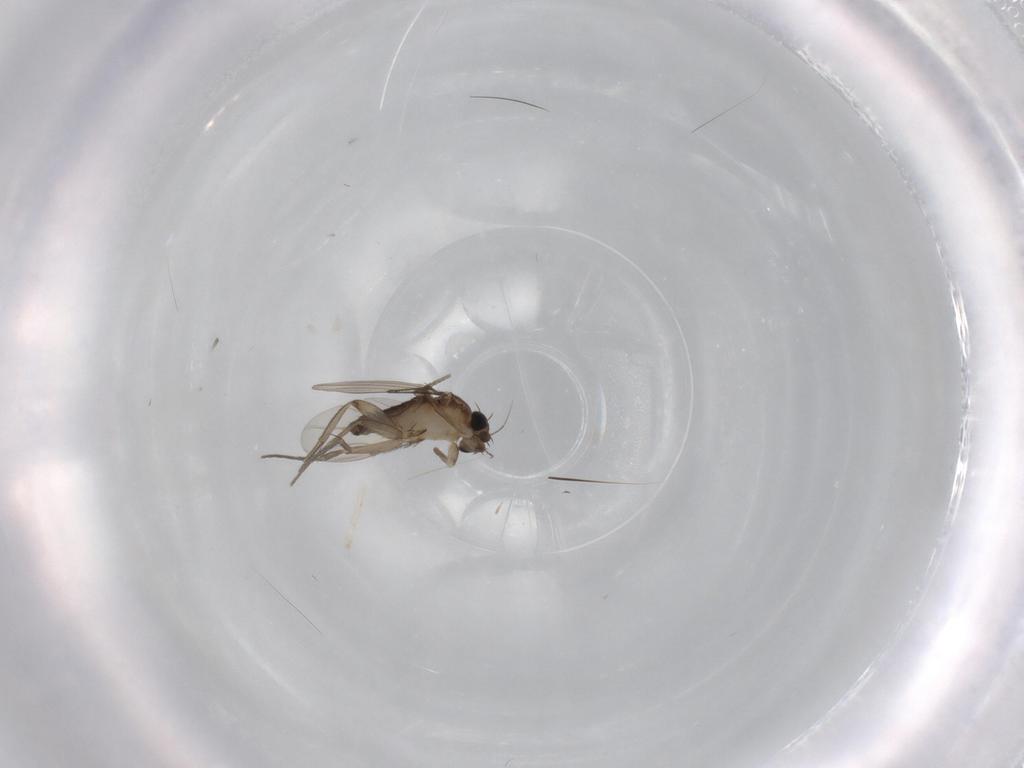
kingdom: Animalia
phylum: Arthropoda
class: Insecta
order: Diptera
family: Phoridae
